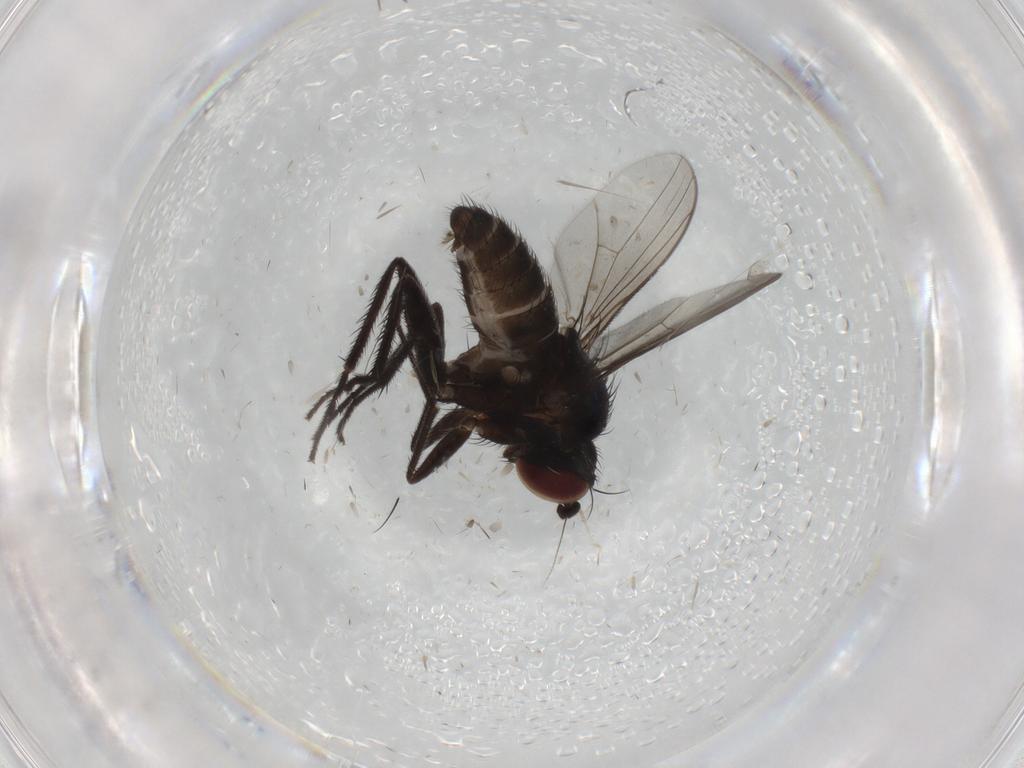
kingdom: Animalia
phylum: Arthropoda
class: Insecta
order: Diptera
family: Dolichopodidae
